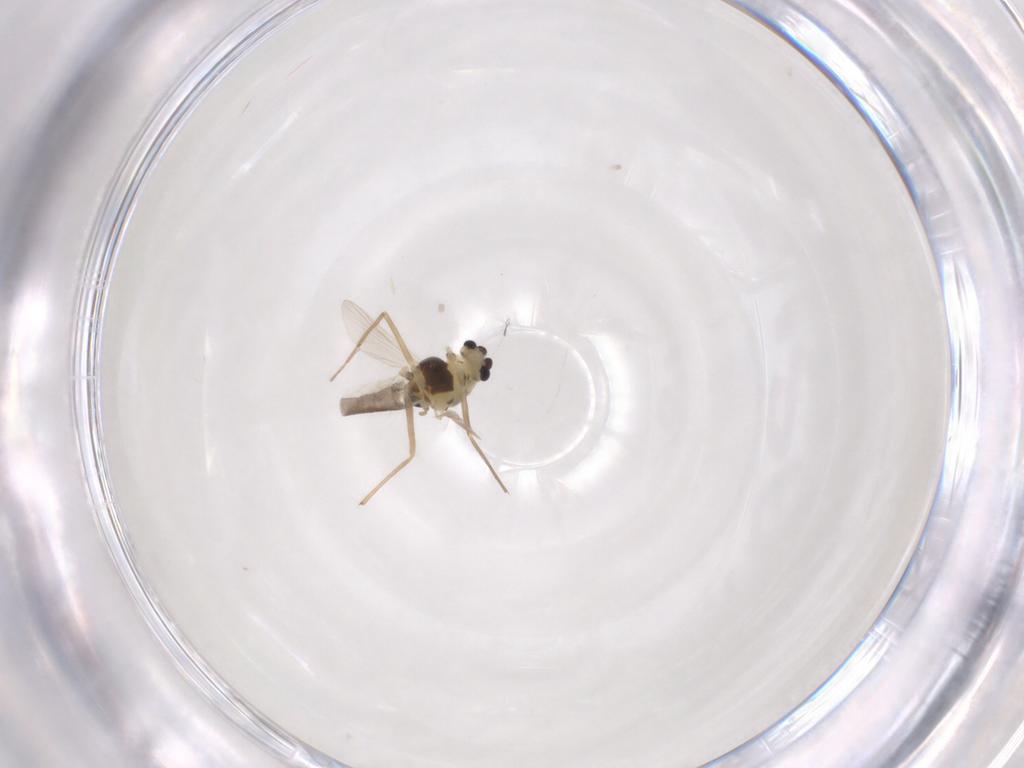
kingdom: Animalia
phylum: Arthropoda
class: Insecta
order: Diptera
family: Chironomidae
